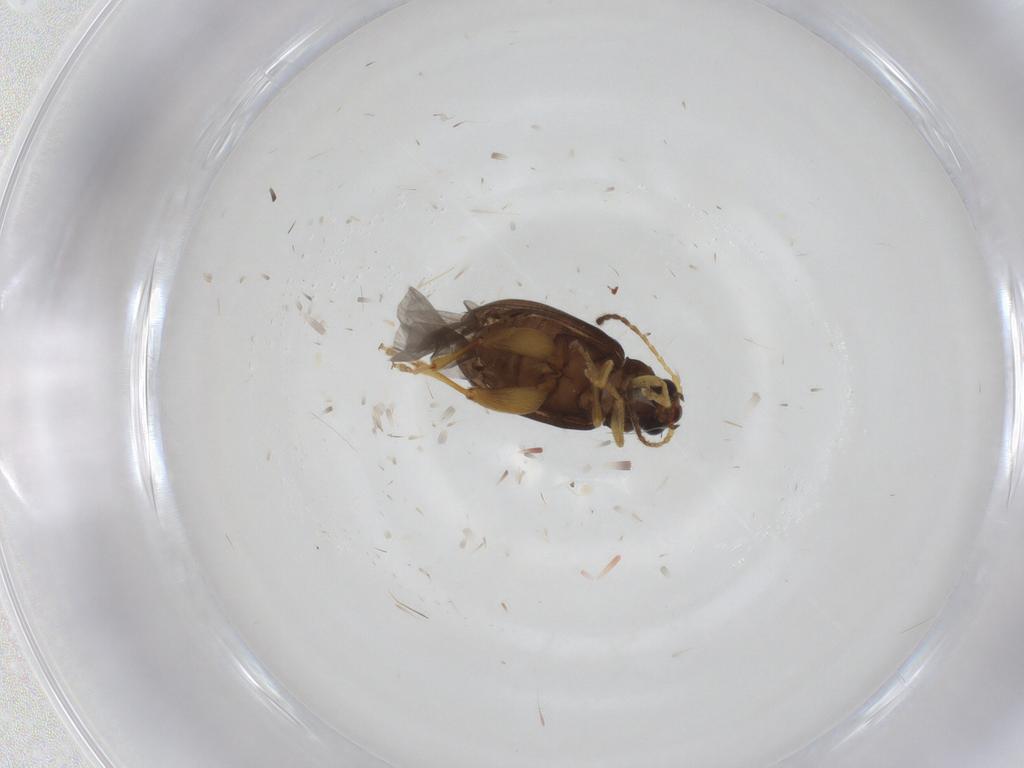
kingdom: Animalia
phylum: Arthropoda
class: Insecta
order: Coleoptera
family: Chrysomelidae
